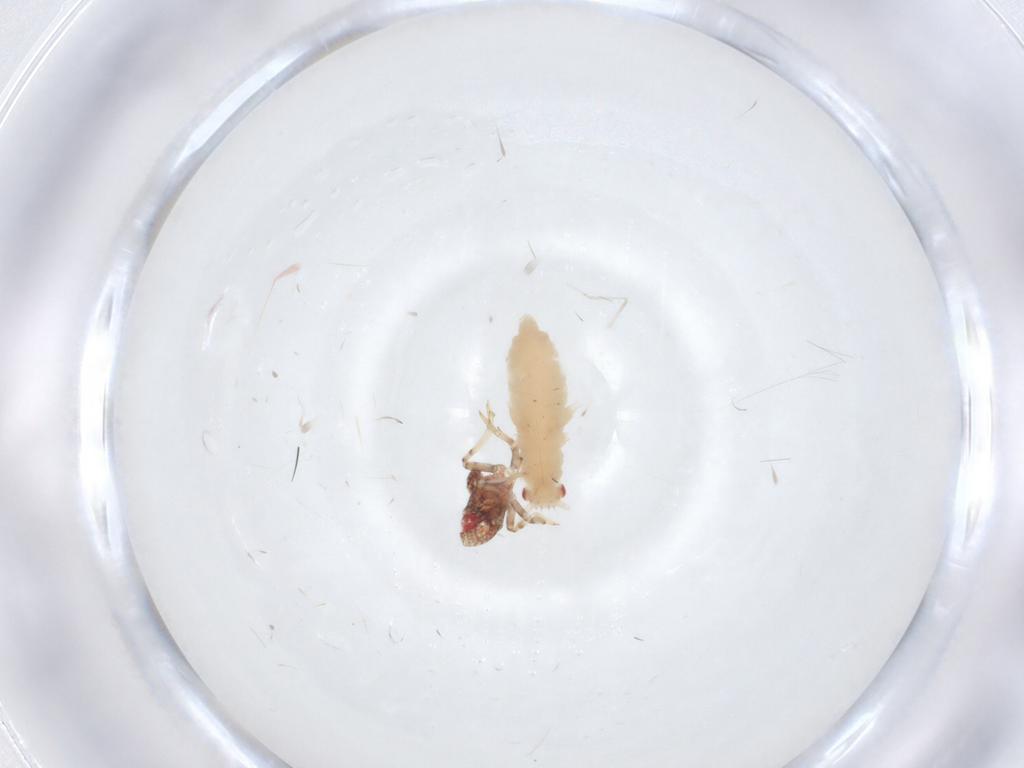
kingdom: Animalia
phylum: Arthropoda
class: Insecta
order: Hemiptera
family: Aphididae
